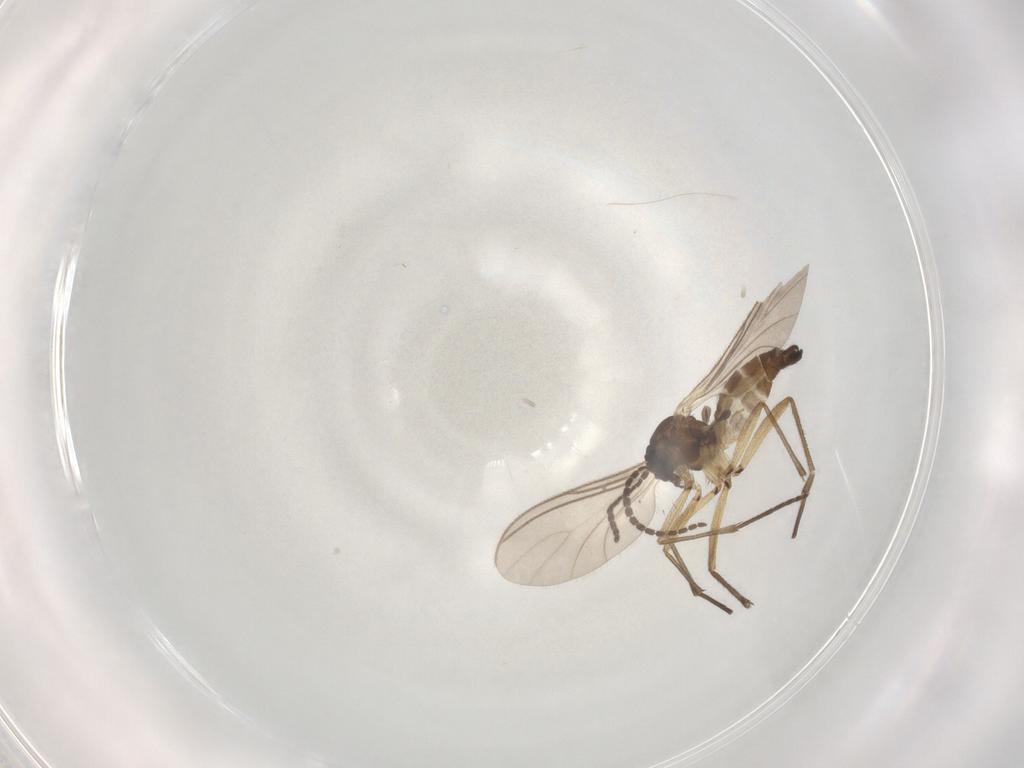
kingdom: Animalia
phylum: Arthropoda
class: Insecta
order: Diptera
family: Sciaridae
